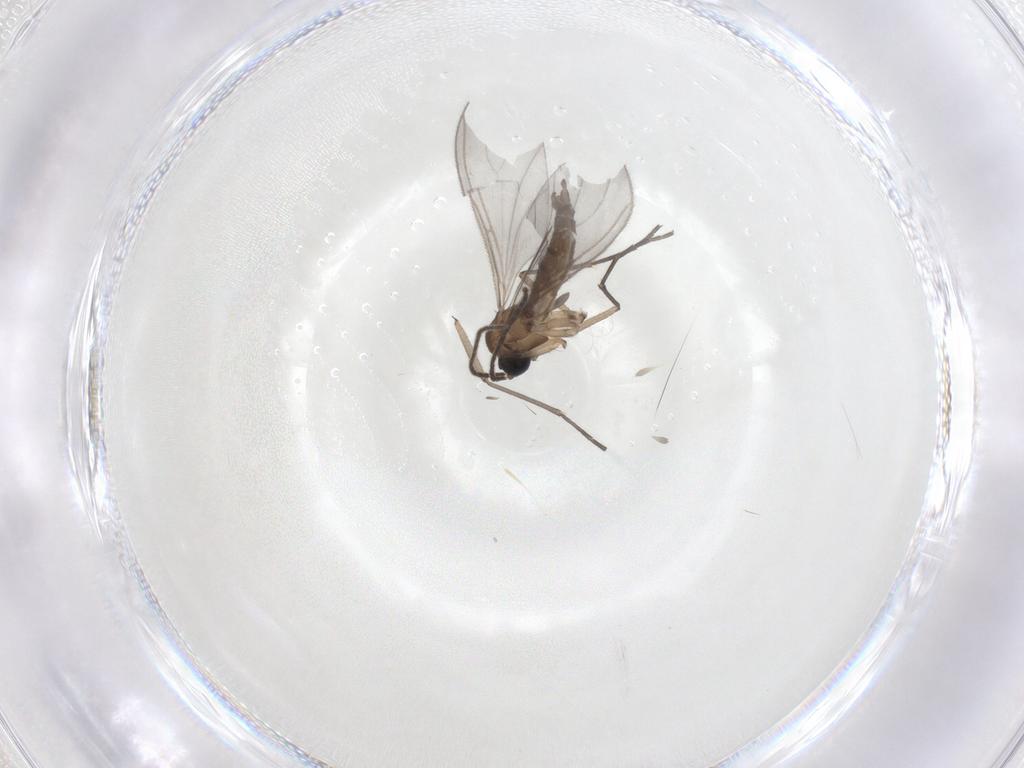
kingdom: Animalia
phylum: Arthropoda
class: Insecta
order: Diptera
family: Sciaridae
